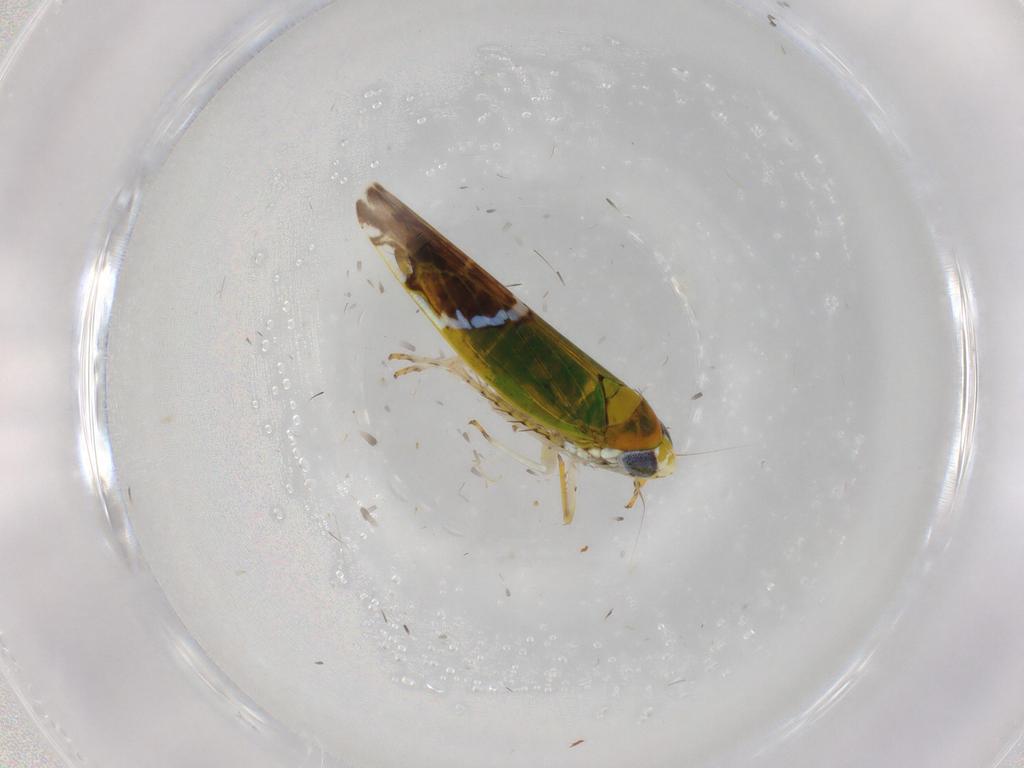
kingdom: Animalia
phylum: Arthropoda
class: Insecta
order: Hemiptera
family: Cicadellidae
